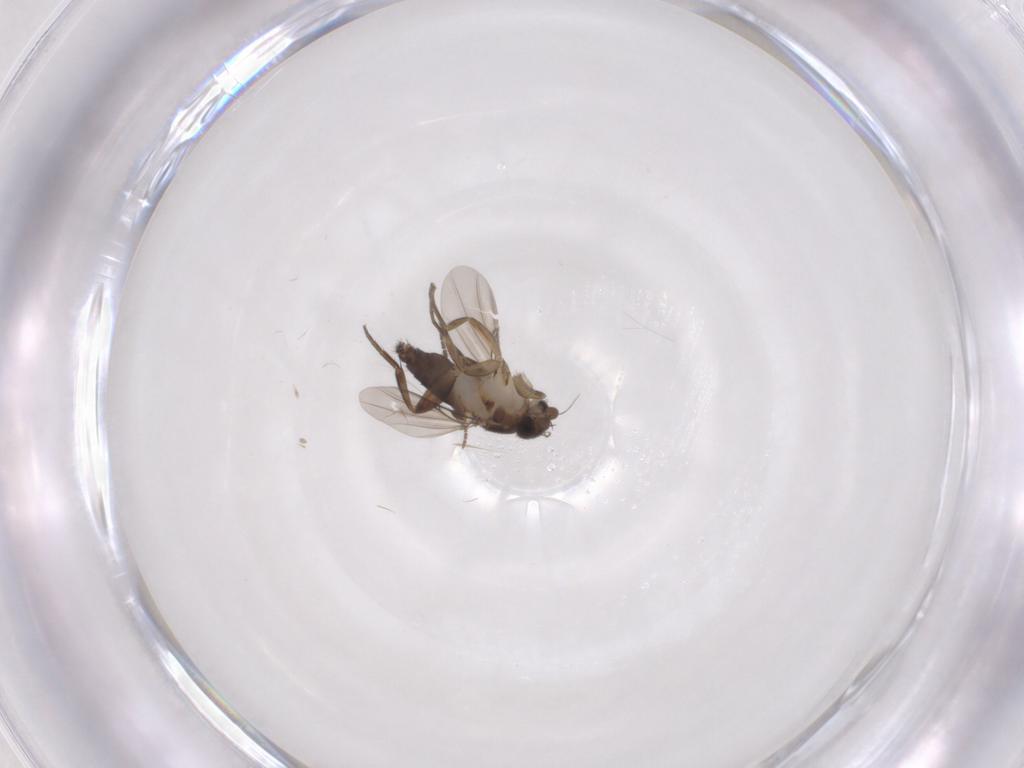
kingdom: Animalia
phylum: Arthropoda
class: Insecta
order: Diptera
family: Phoridae
